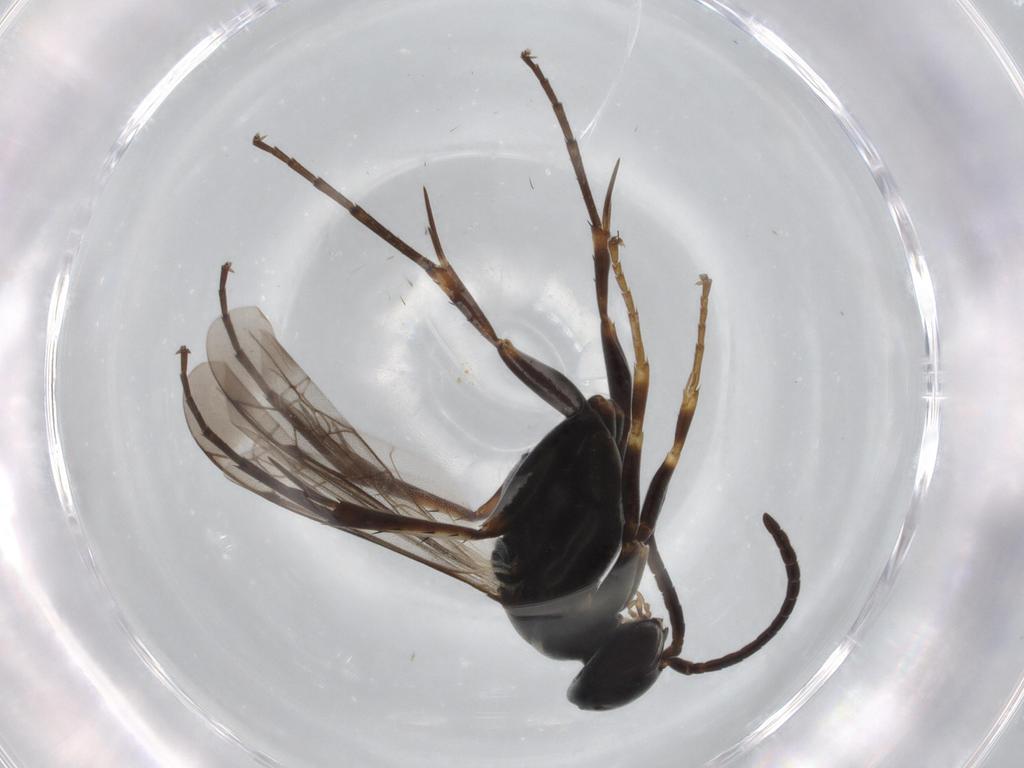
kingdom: Animalia
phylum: Arthropoda
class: Insecta
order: Hymenoptera
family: Pompilidae
